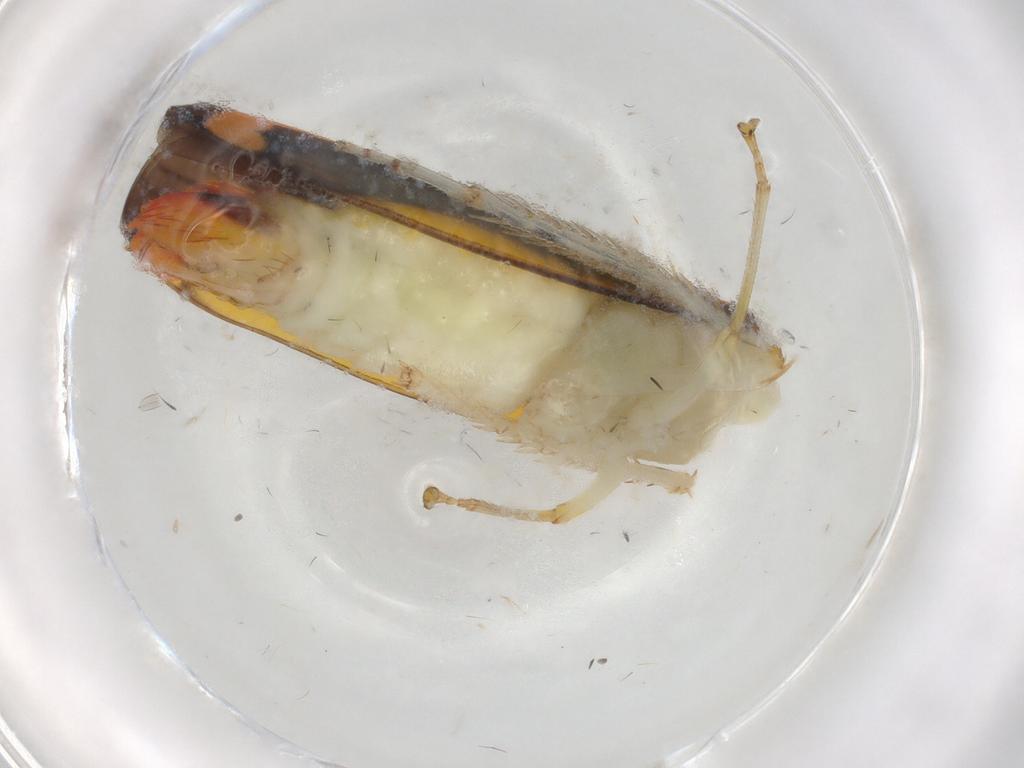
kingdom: Animalia
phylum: Arthropoda
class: Insecta
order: Hemiptera
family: Cicadellidae
